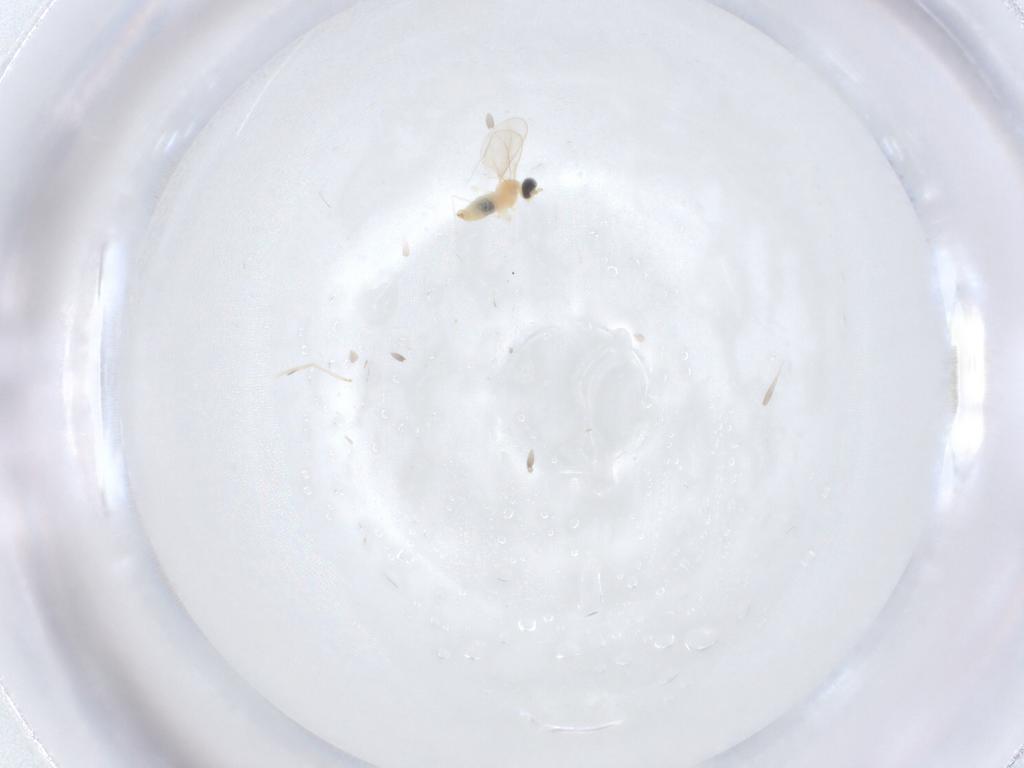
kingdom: Animalia
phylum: Arthropoda
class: Insecta
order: Diptera
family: Cecidomyiidae
